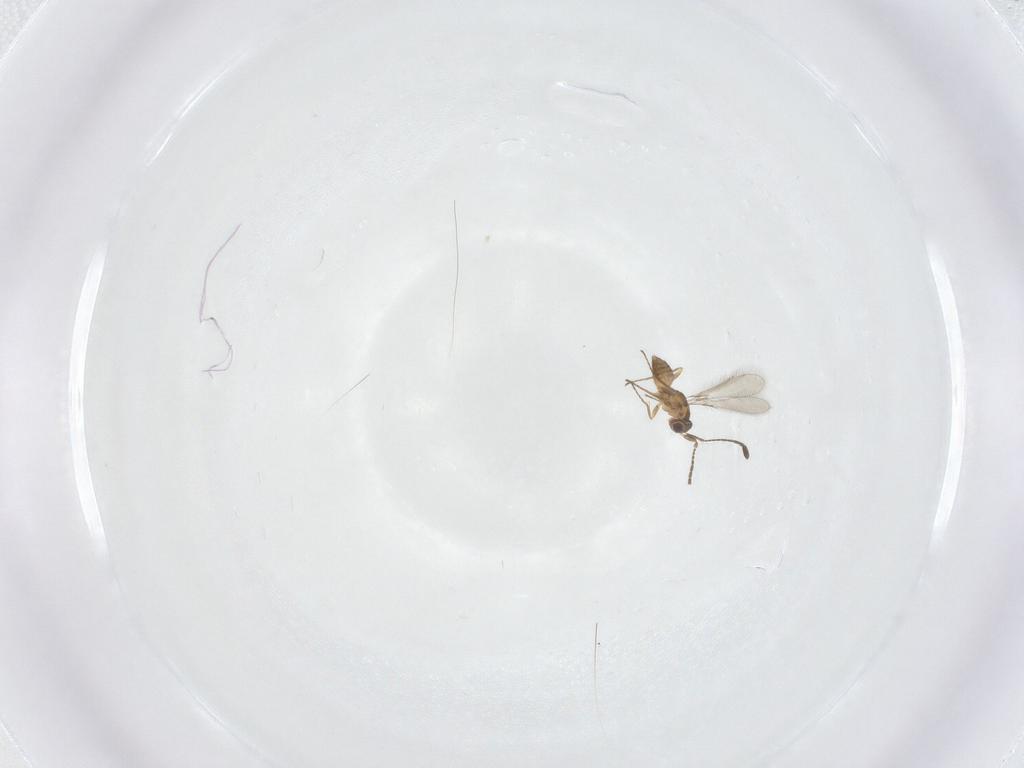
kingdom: Animalia
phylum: Arthropoda
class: Insecta
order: Hymenoptera
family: Mymaridae
